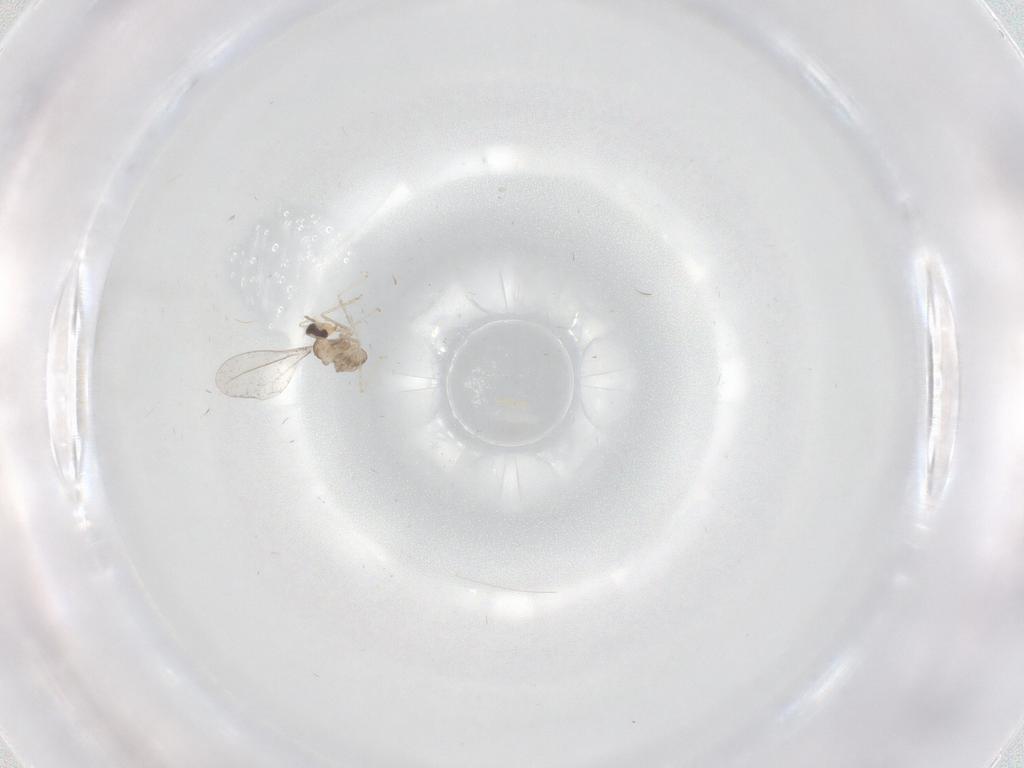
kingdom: Animalia
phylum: Arthropoda
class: Insecta
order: Diptera
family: Cecidomyiidae
